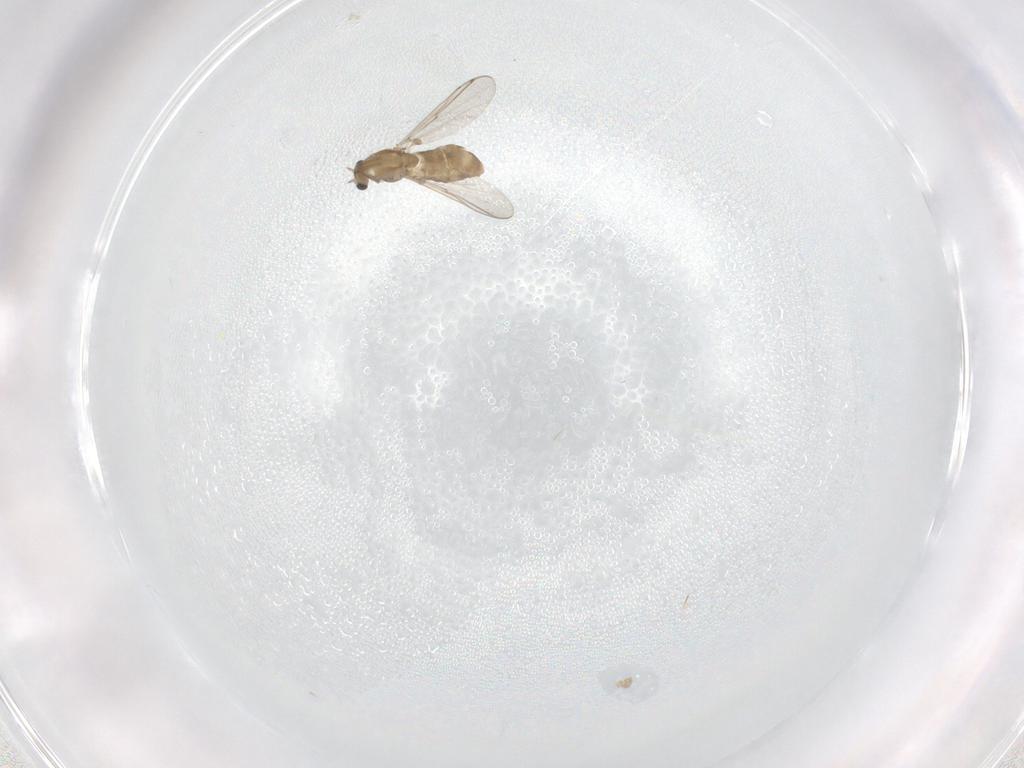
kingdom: Animalia
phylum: Arthropoda
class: Insecta
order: Diptera
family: Chironomidae
